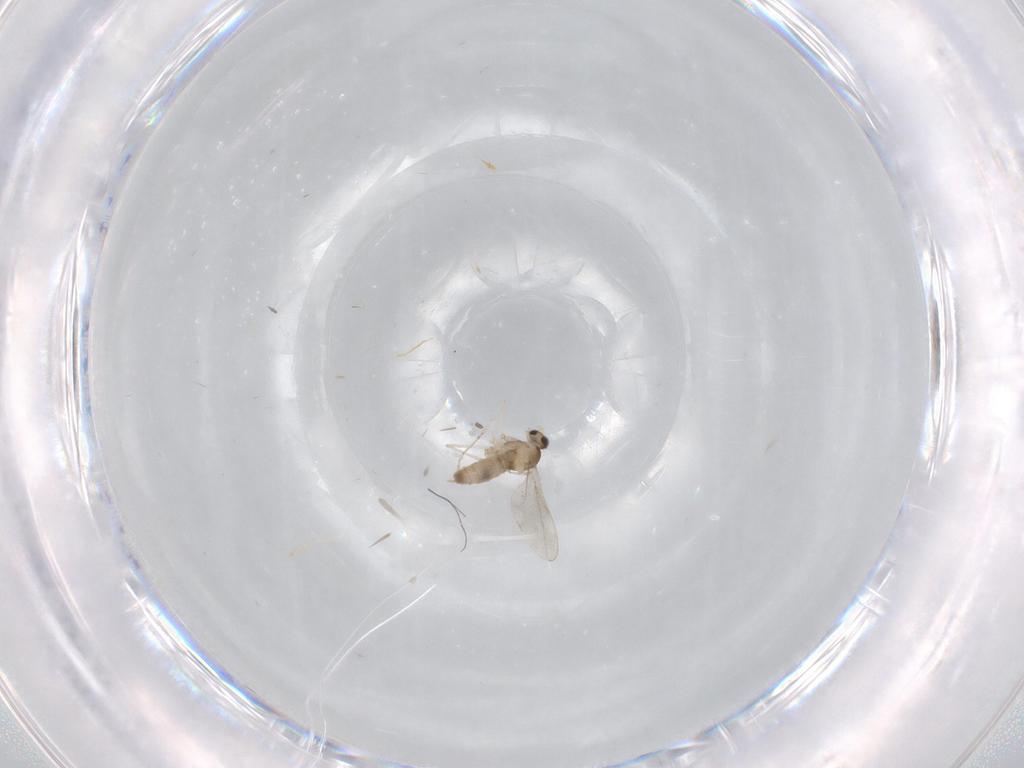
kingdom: Animalia
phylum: Arthropoda
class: Insecta
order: Diptera
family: Cecidomyiidae
